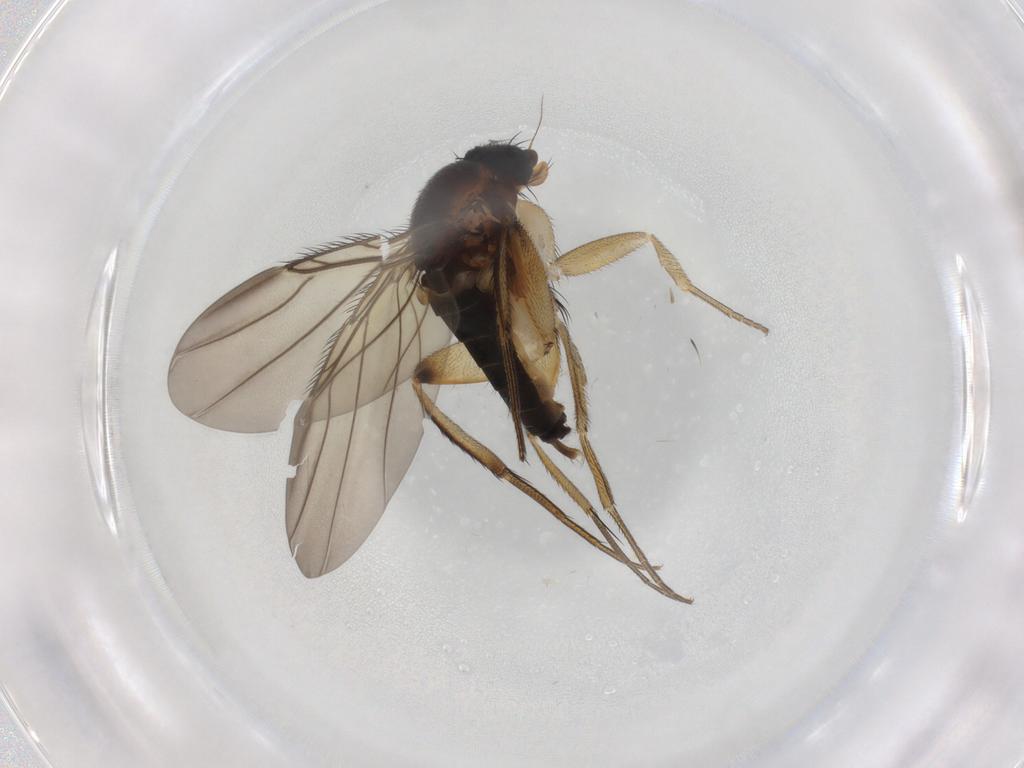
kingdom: Animalia
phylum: Arthropoda
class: Insecta
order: Diptera
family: Phoridae
